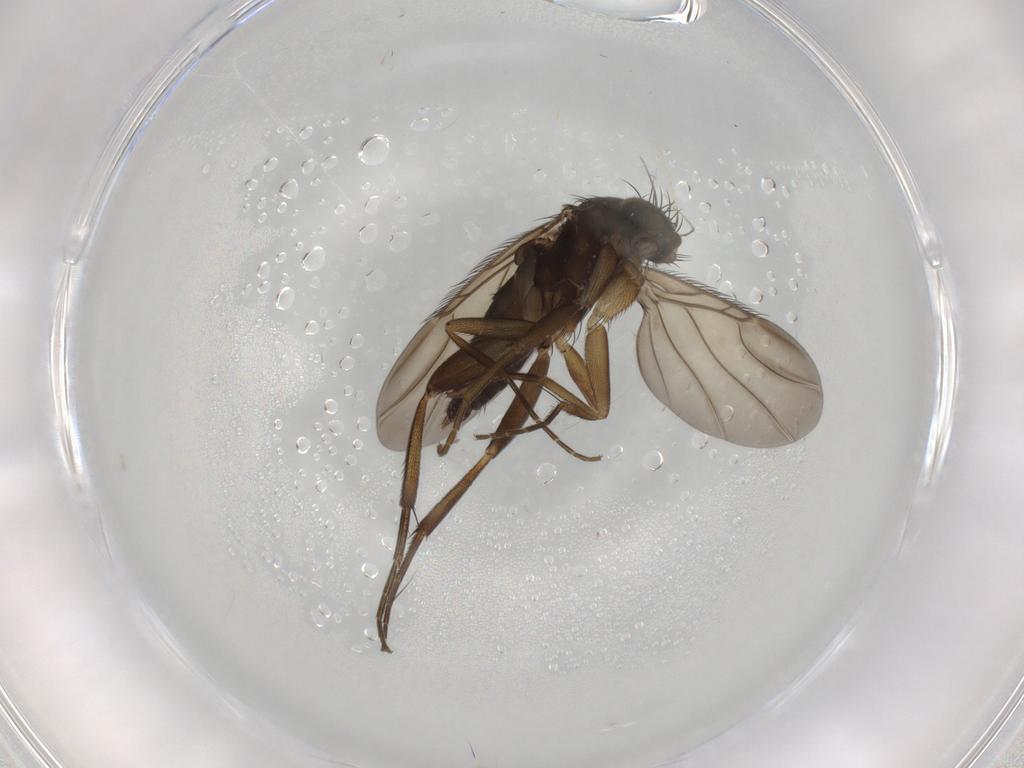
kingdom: Animalia
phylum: Arthropoda
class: Insecta
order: Diptera
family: Phoridae
